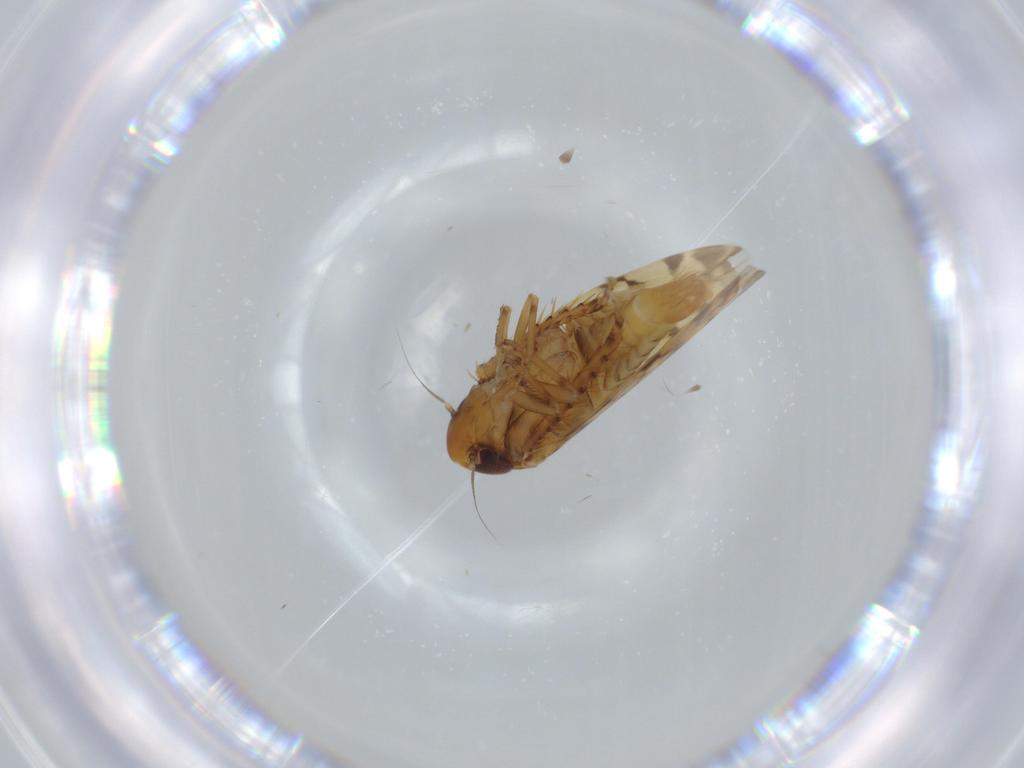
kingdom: Animalia
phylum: Arthropoda
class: Insecta
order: Hemiptera
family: Cicadellidae
